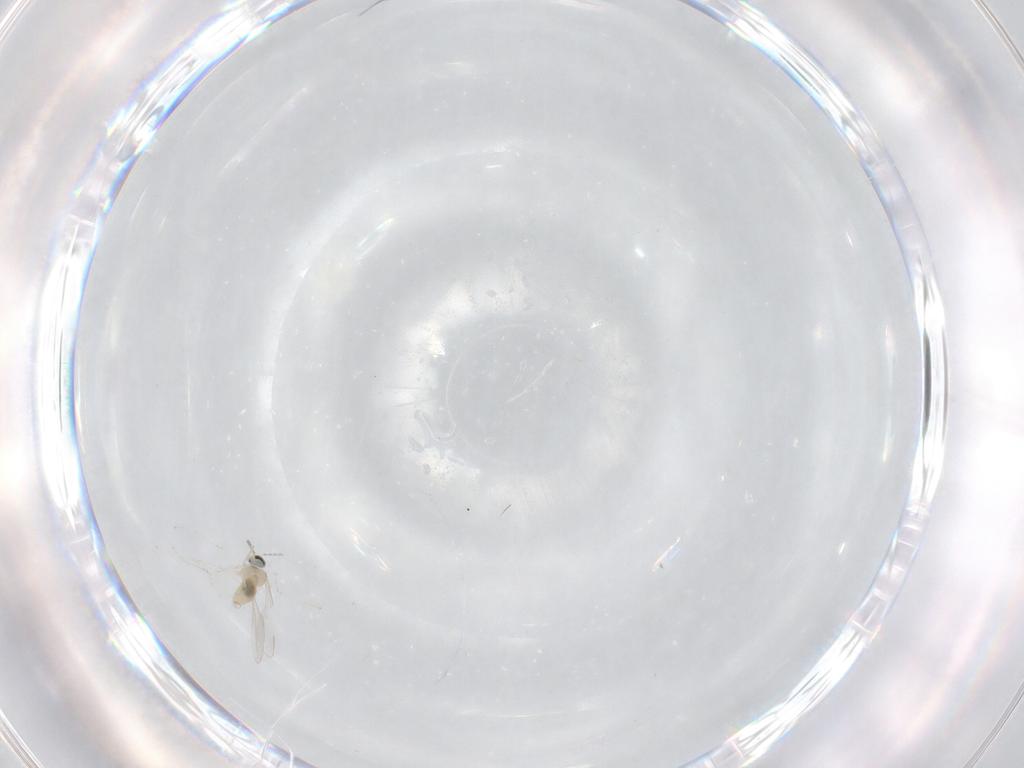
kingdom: Animalia
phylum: Arthropoda
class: Insecta
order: Diptera
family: Cecidomyiidae
